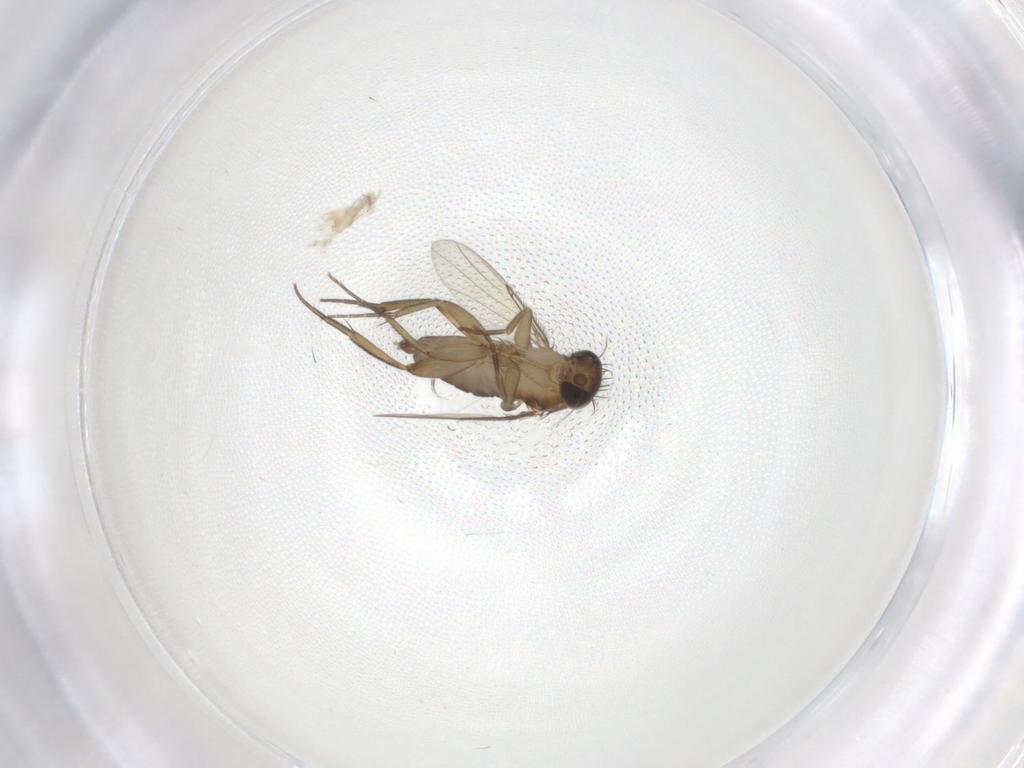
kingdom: Animalia
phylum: Arthropoda
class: Insecta
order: Diptera
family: Phoridae
